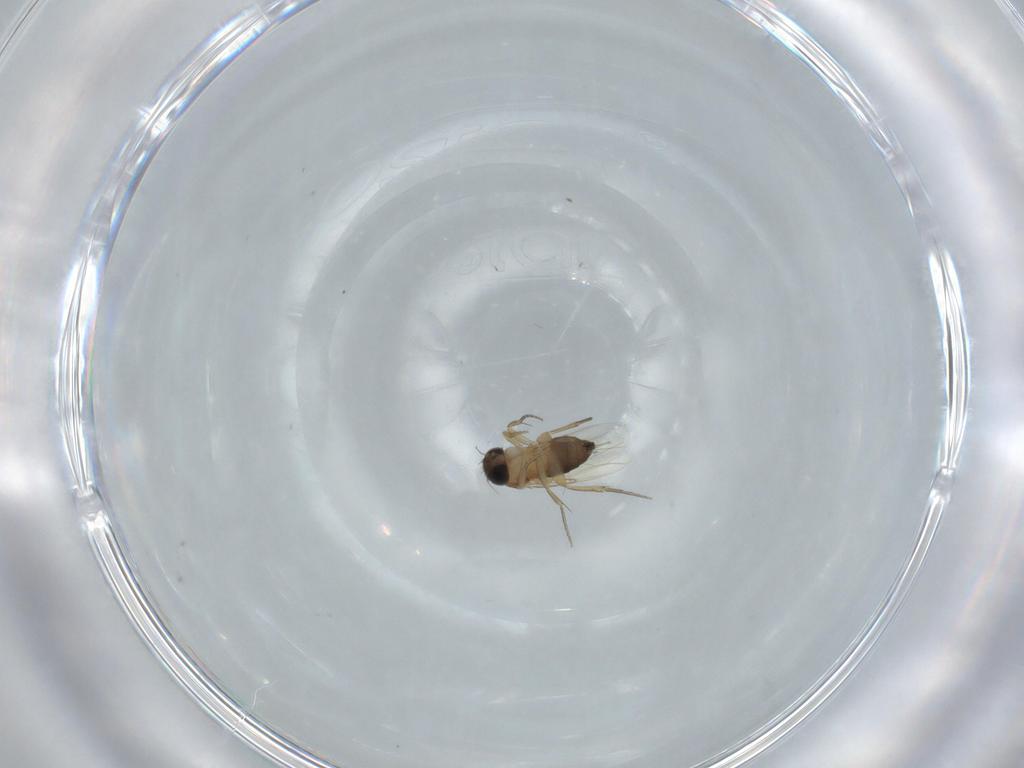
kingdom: Animalia
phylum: Arthropoda
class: Insecta
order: Diptera
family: Phoridae
